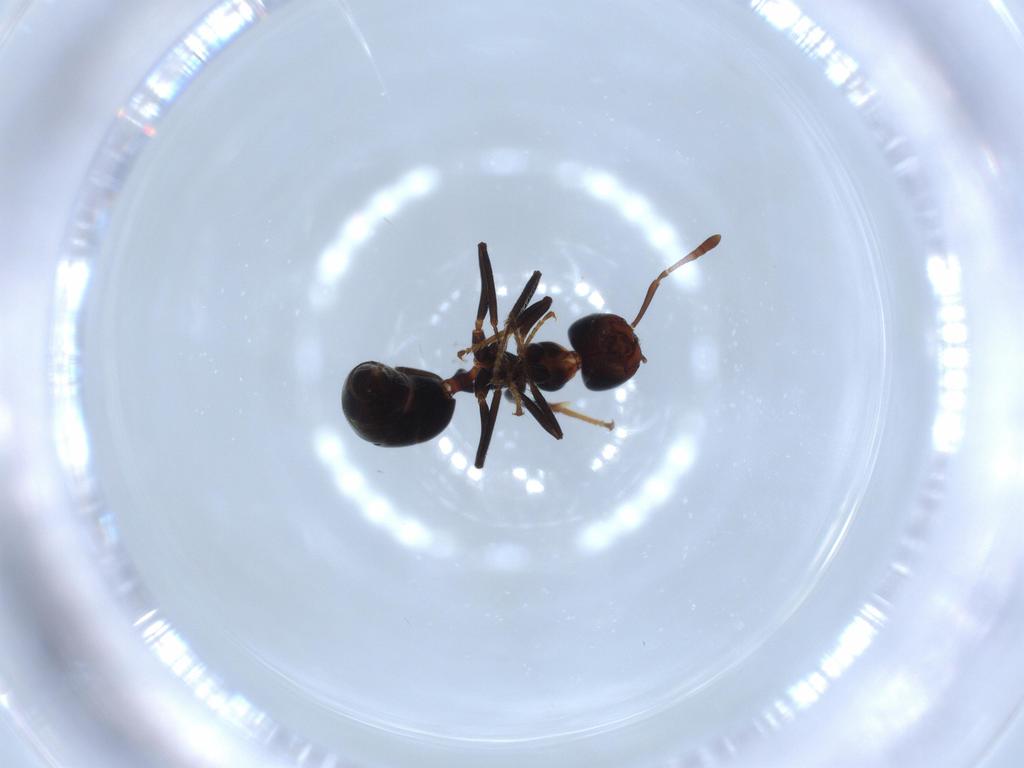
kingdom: Animalia
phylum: Arthropoda
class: Insecta
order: Hymenoptera
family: Formicidae
